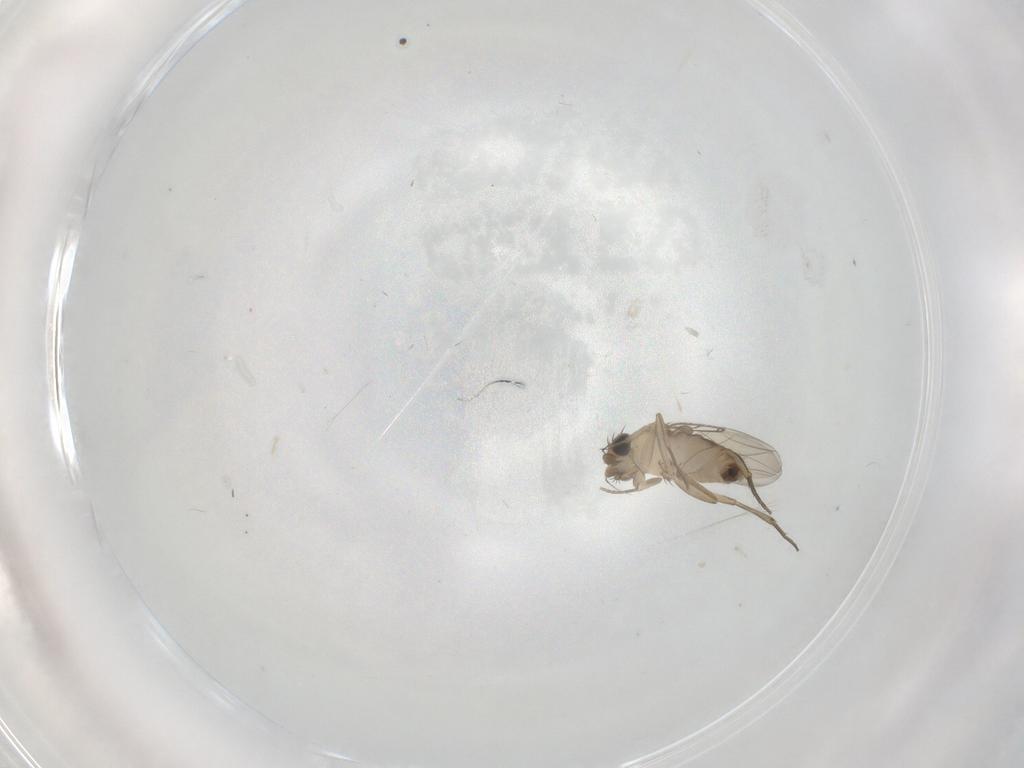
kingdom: Animalia
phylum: Arthropoda
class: Insecta
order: Diptera
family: Phoridae
